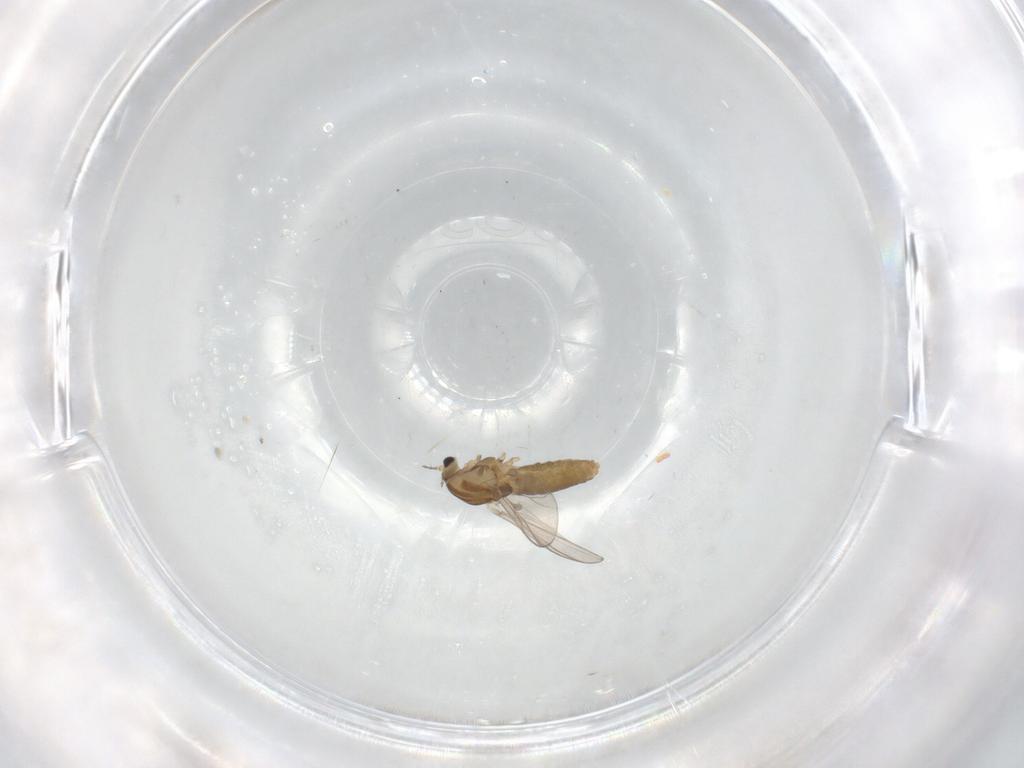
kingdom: Animalia
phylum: Arthropoda
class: Insecta
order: Diptera
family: Chironomidae
